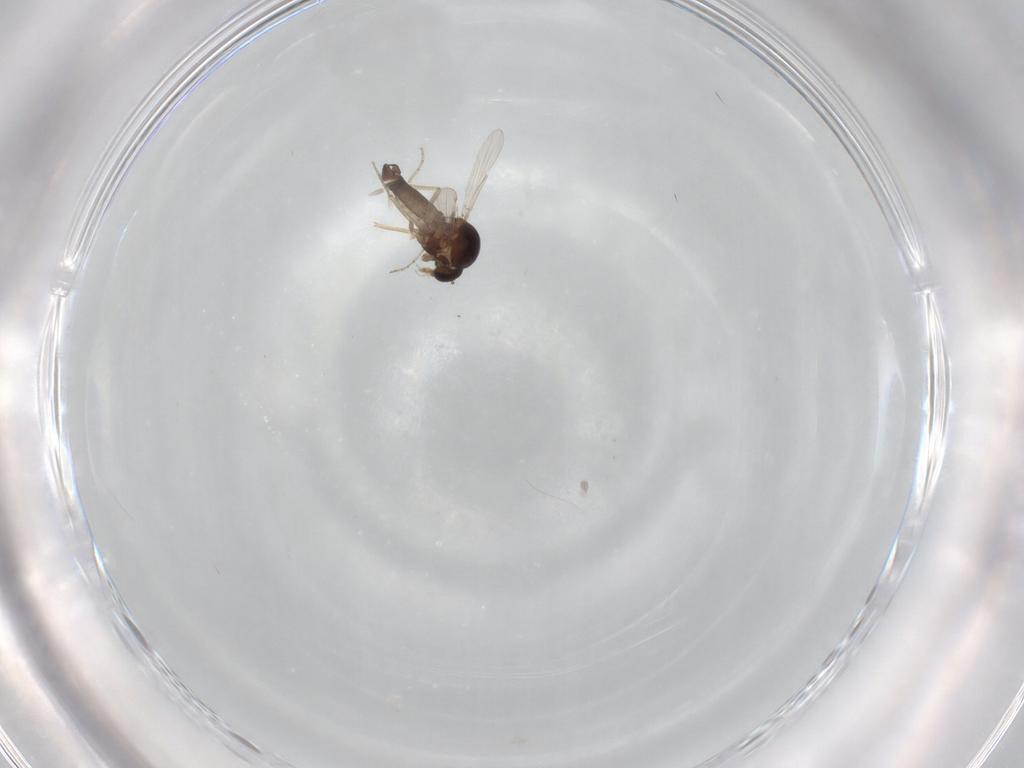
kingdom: Animalia
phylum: Arthropoda
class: Insecta
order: Diptera
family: Ceratopogonidae
